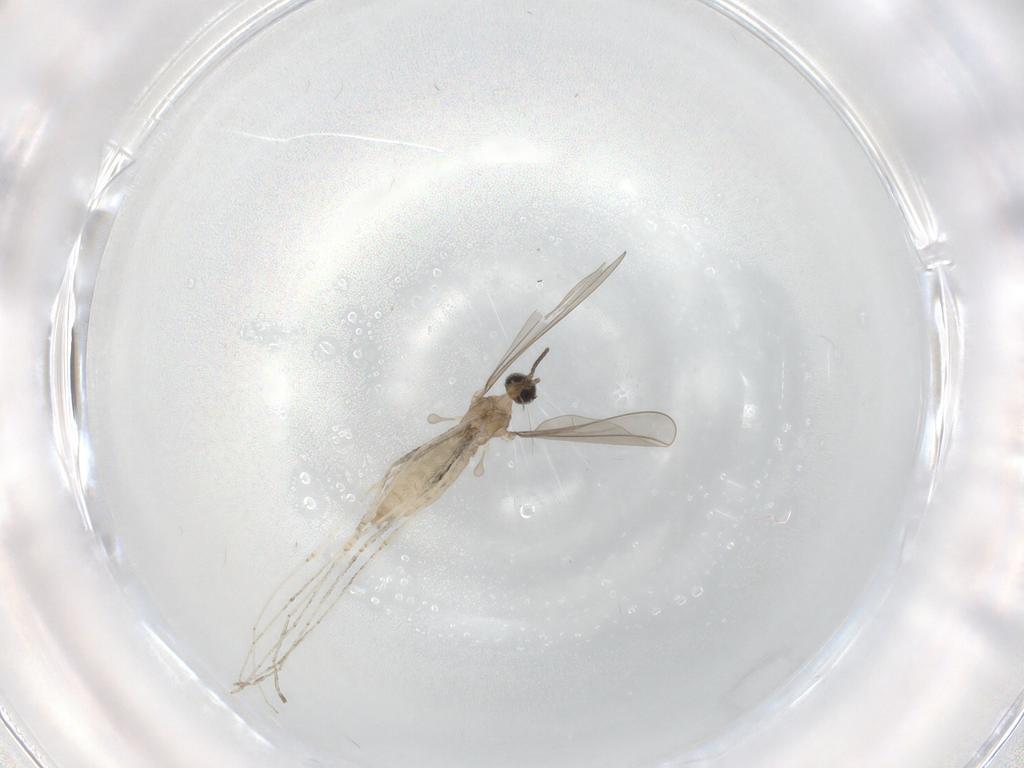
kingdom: Animalia
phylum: Arthropoda
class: Insecta
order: Diptera
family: Cecidomyiidae
